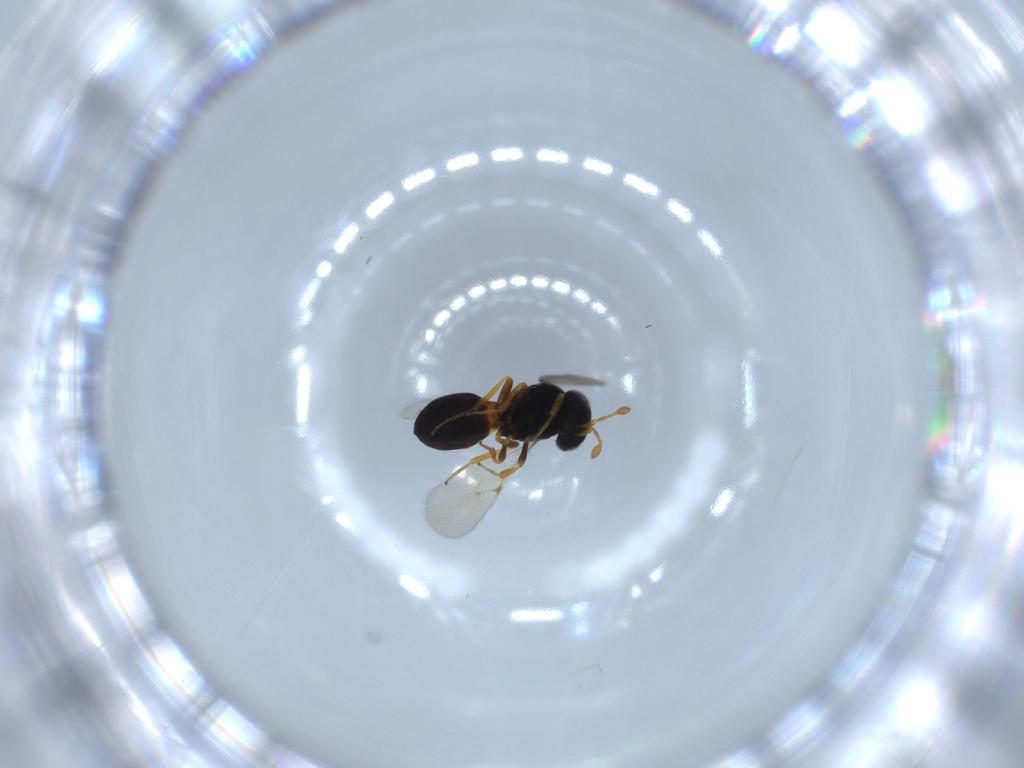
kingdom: Animalia
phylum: Arthropoda
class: Insecta
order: Hymenoptera
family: Scelionidae
